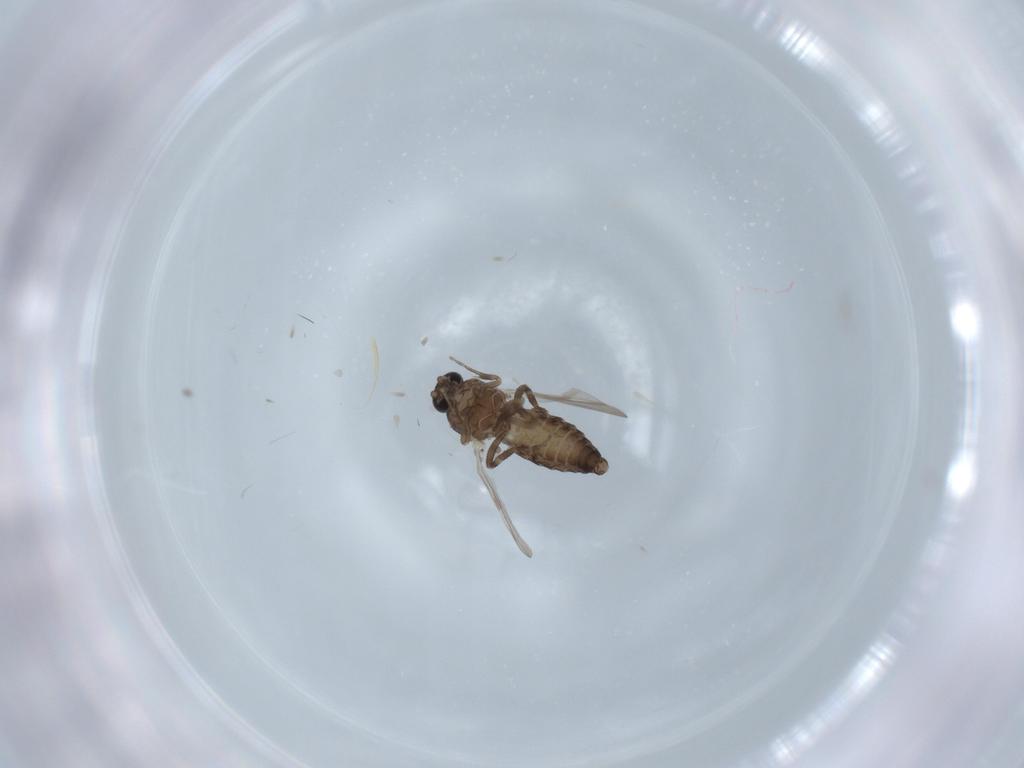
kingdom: Animalia
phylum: Arthropoda
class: Insecta
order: Diptera
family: Ceratopogonidae
